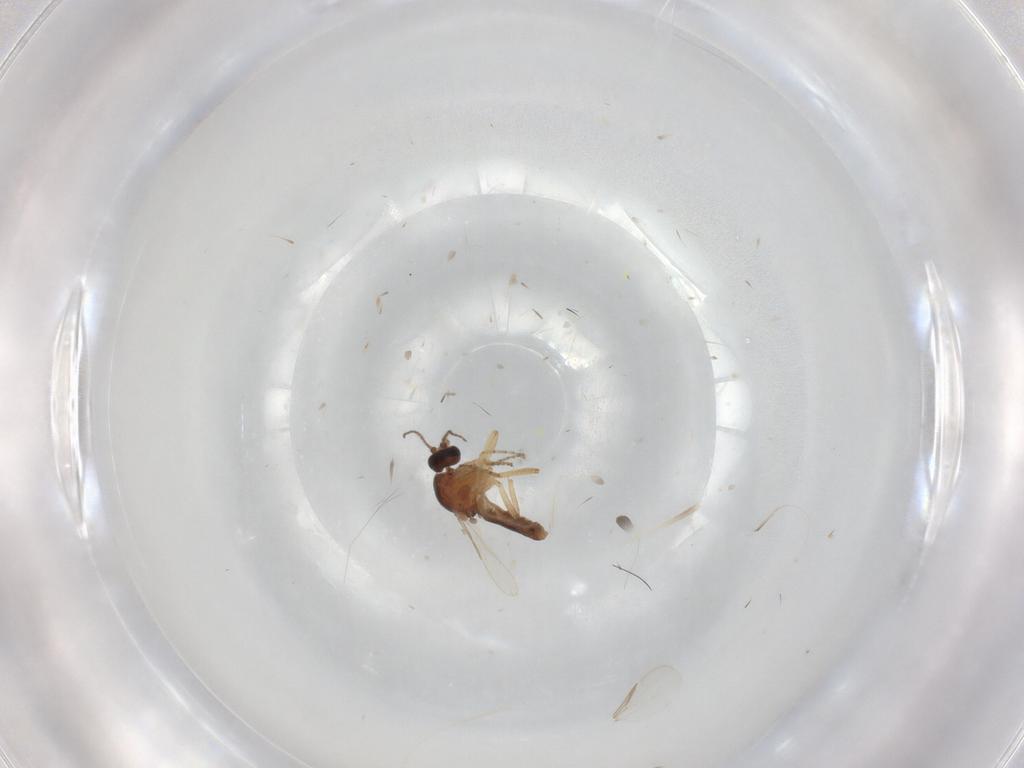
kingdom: Animalia
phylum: Arthropoda
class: Insecta
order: Diptera
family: Ceratopogonidae
